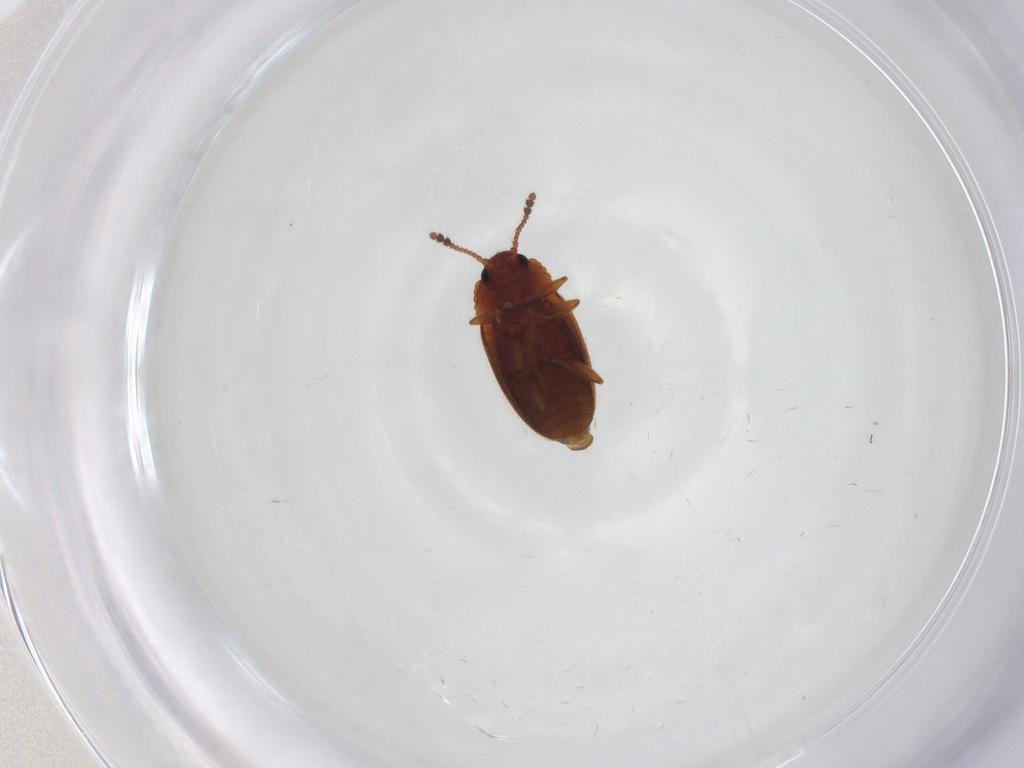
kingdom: Animalia
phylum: Arthropoda
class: Insecta
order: Coleoptera
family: Erotylidae
